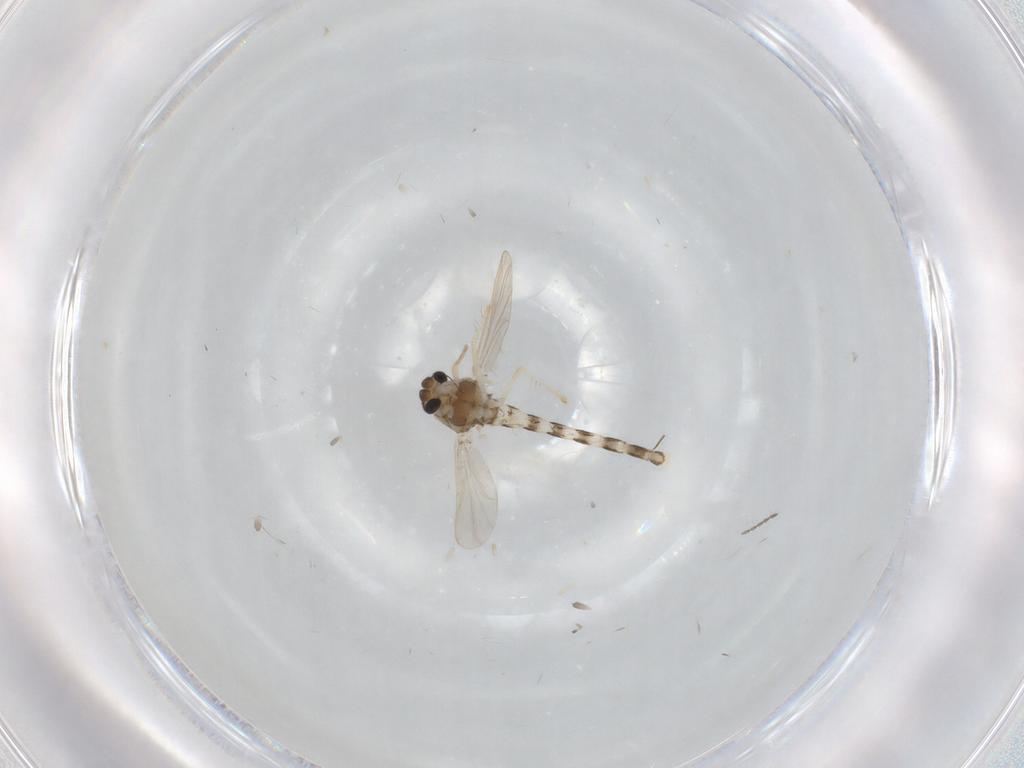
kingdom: Animalia
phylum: Arthropoda
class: Insecta
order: Diptera
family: Chironomidae
